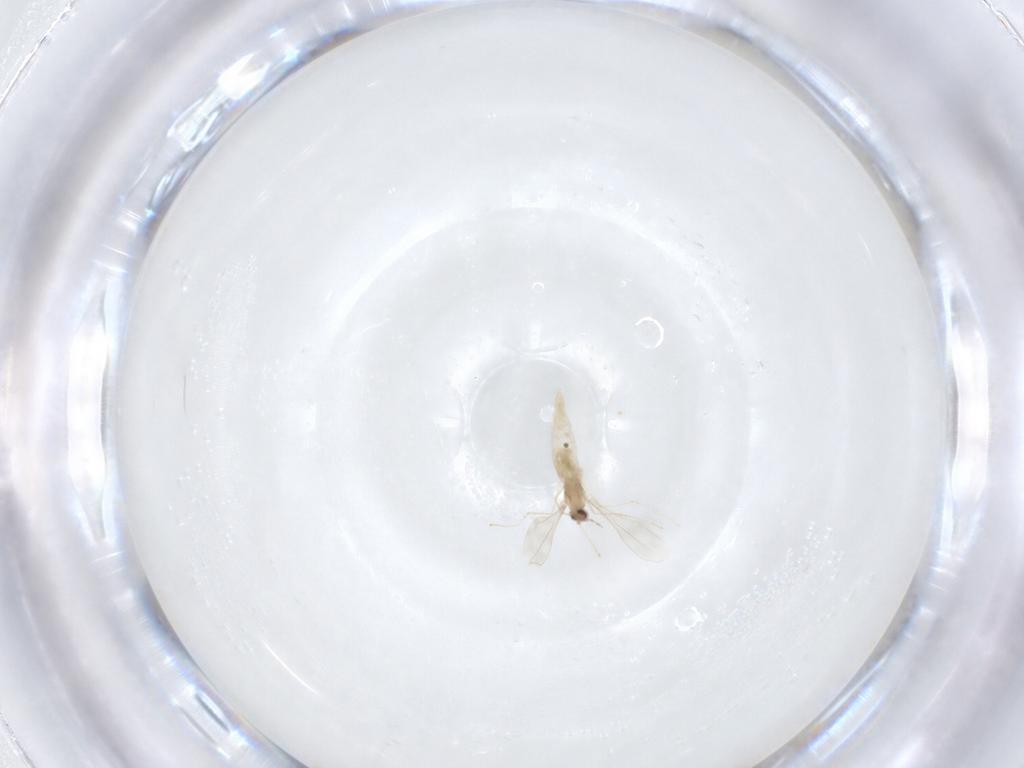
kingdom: Animalia
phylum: Arthropoda
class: Insecta
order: Diptera
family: Cecidomyiidae
